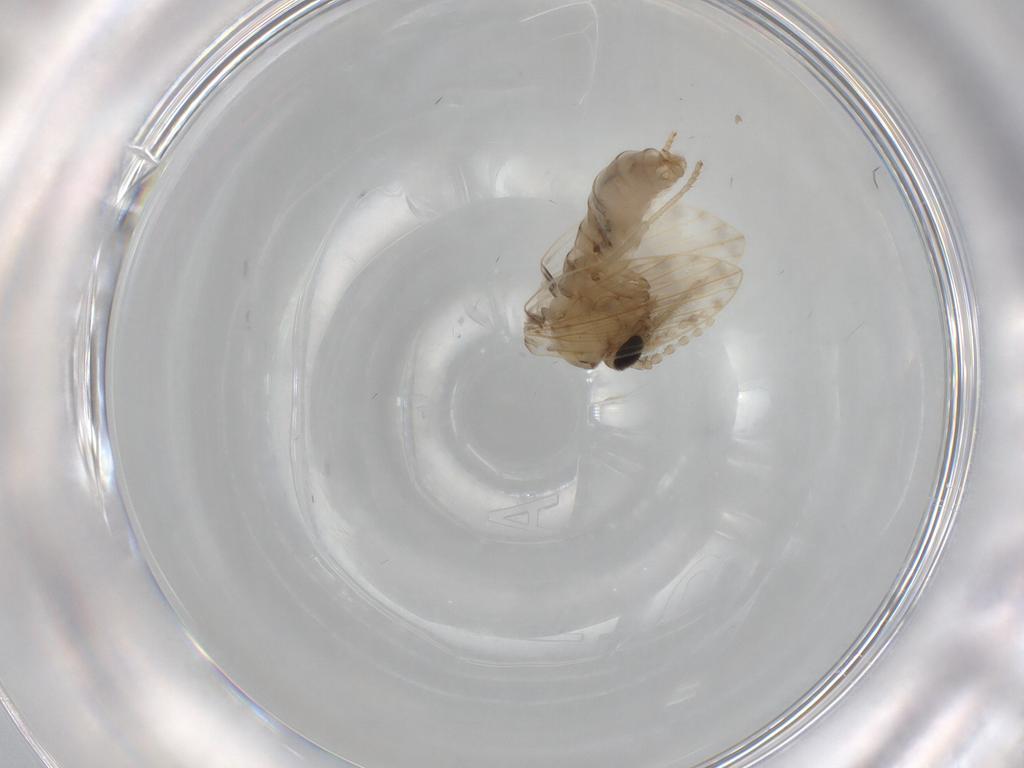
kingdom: Animalia
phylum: Arthropoda
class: Insecta
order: Diptera
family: Psychodidae
